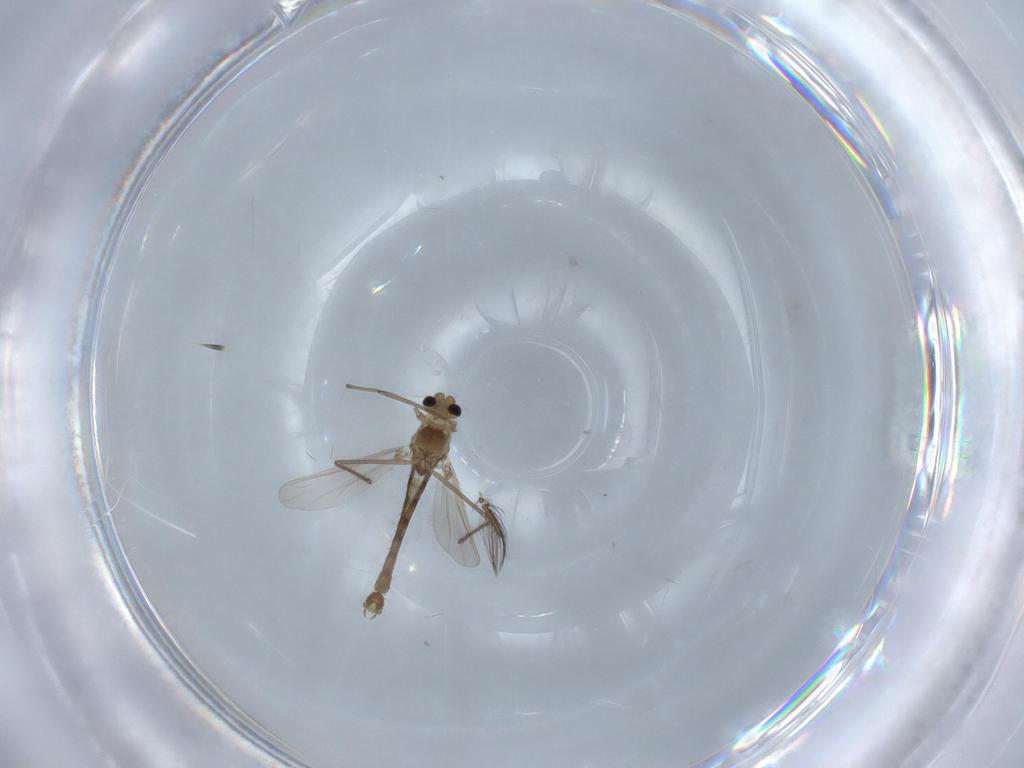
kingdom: Animalia
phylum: Arthropoda
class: Insecta
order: Diptera
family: Chironomidae
